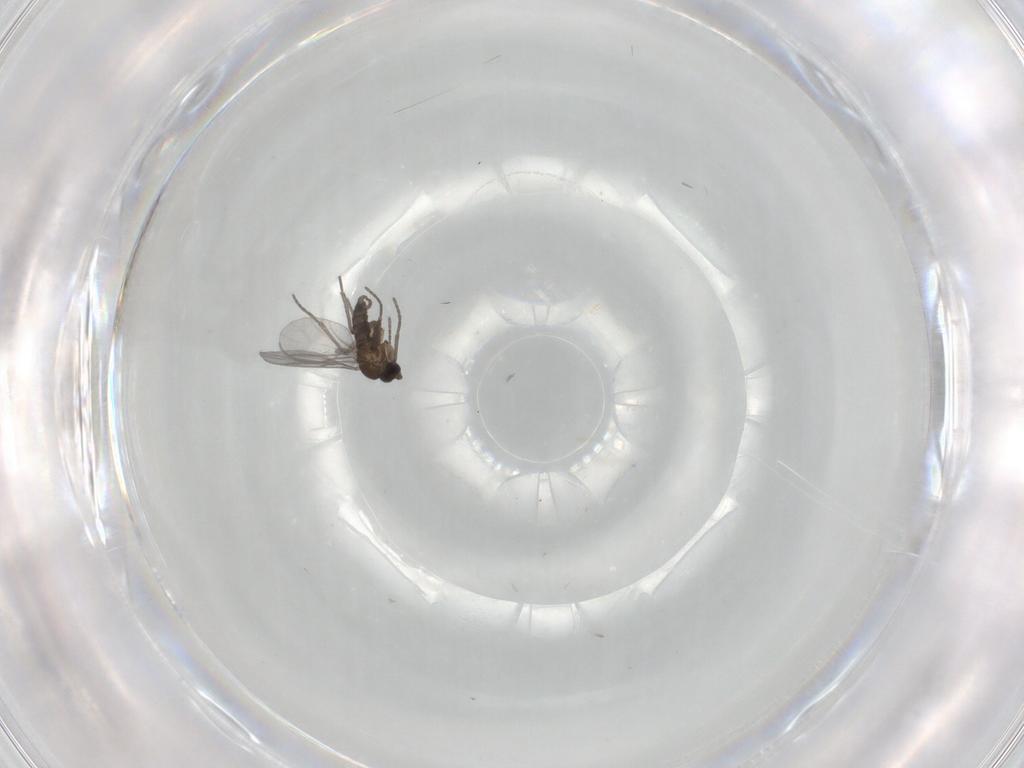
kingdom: Animalia
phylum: Arthropoda
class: Insecta
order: Diptera
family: Sciaridae
